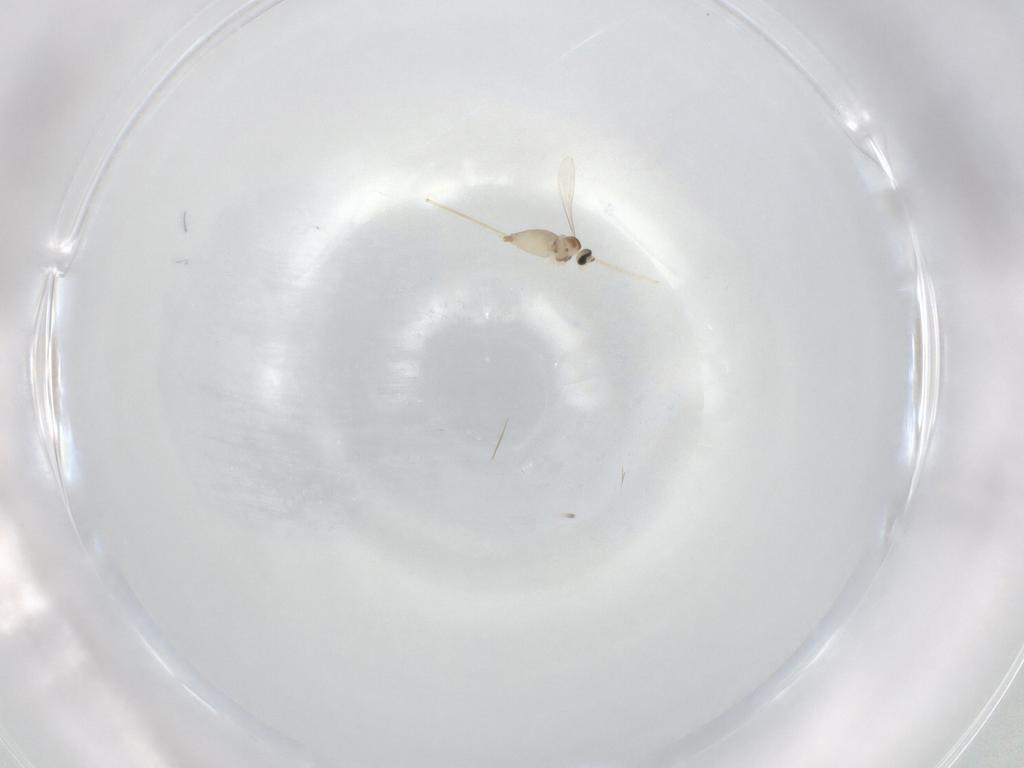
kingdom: Animalia
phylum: Arthropoda
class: Insecta
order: Diptera
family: Chironomidae
